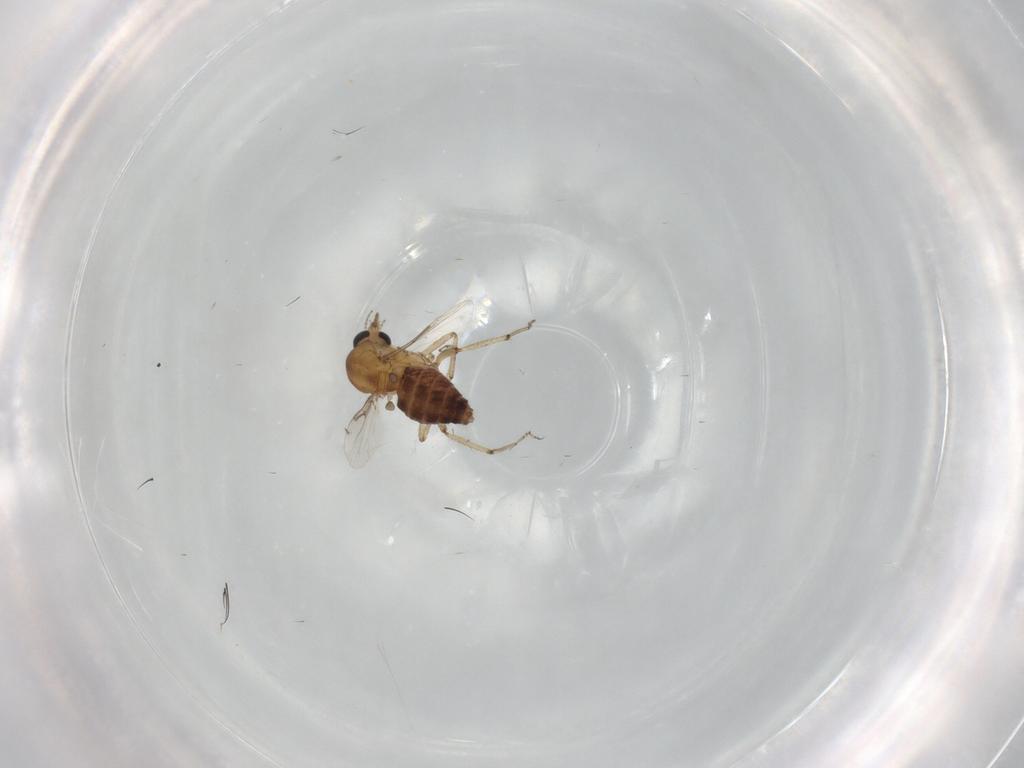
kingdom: Animalia
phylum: Arthropoda
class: Insecta
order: Diptera
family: Ceratopogonidae
